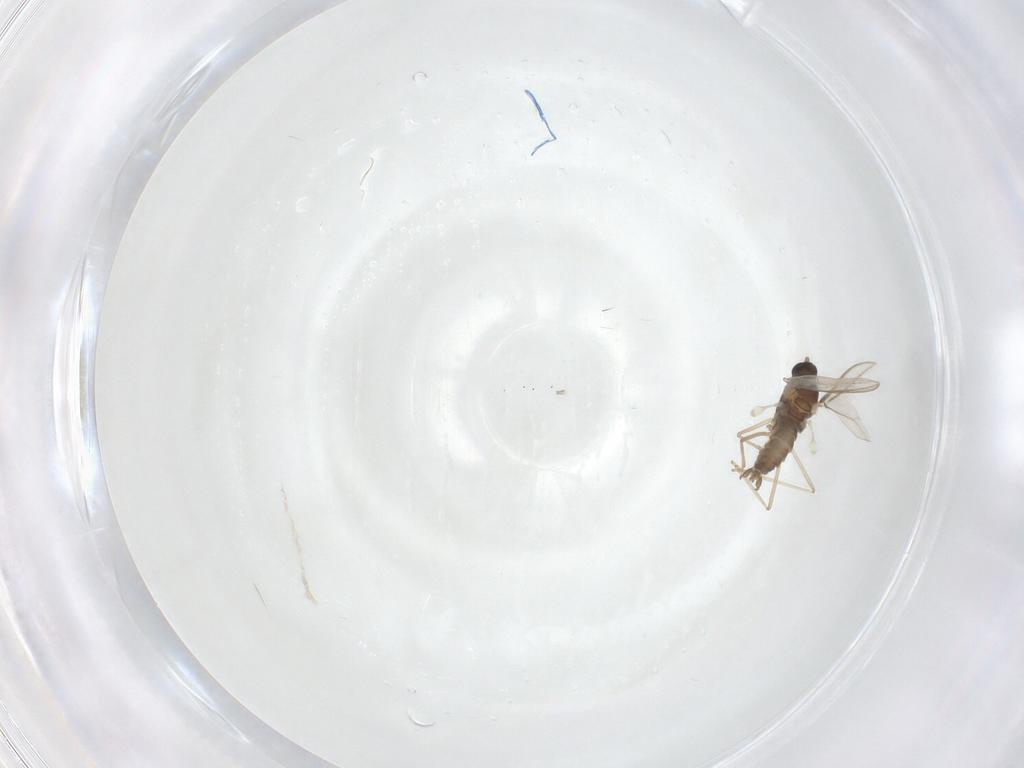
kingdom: Animalia
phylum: Arthropoda
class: Insecta
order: Diptera
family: Cecidomyiidae
